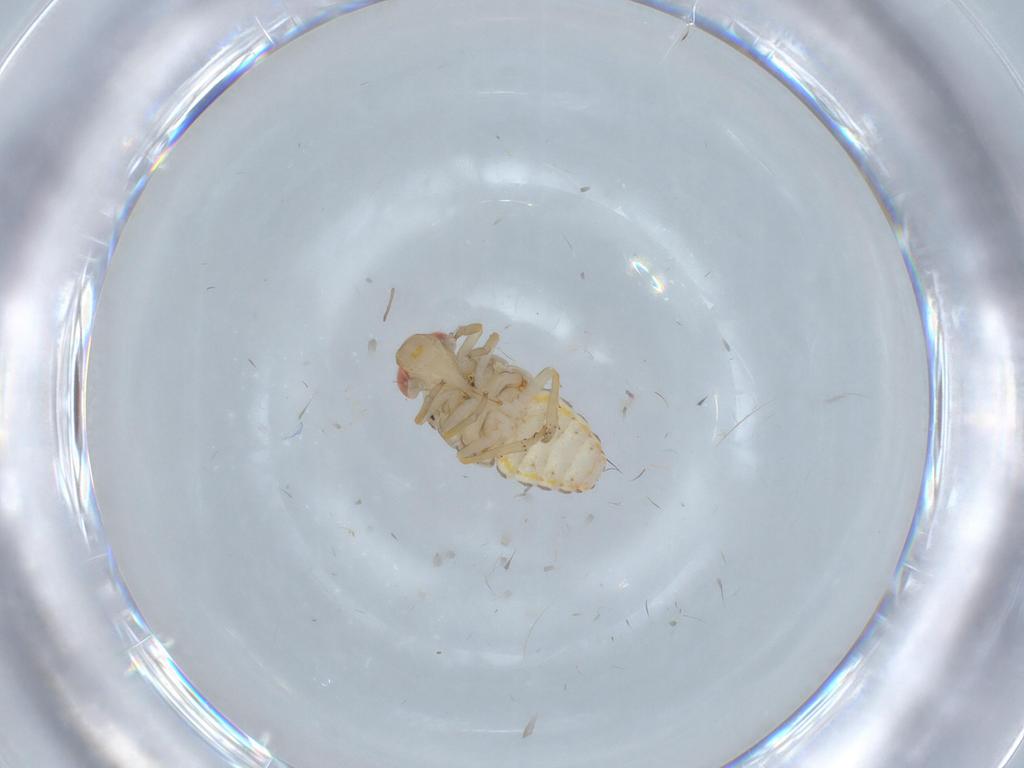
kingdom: Animalia
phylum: Arthropoda
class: Insecta
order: Hemiptera
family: Issidae
